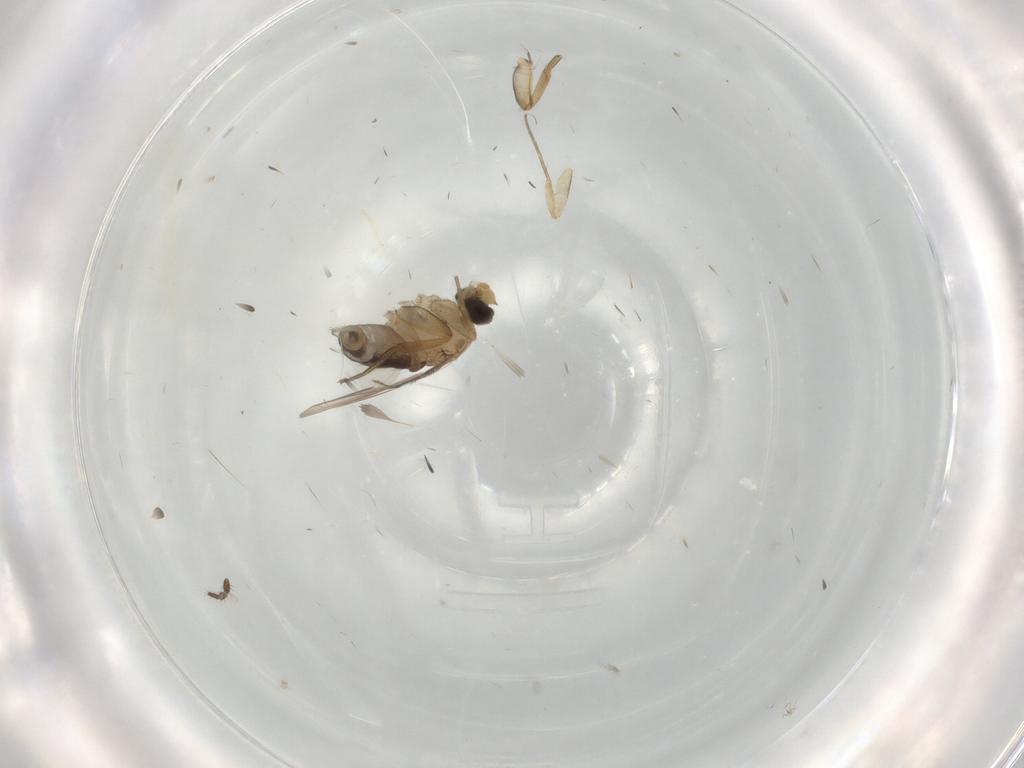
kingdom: Animalia
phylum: Arthropoda
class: Insecta
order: Diptera
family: Phoridae
